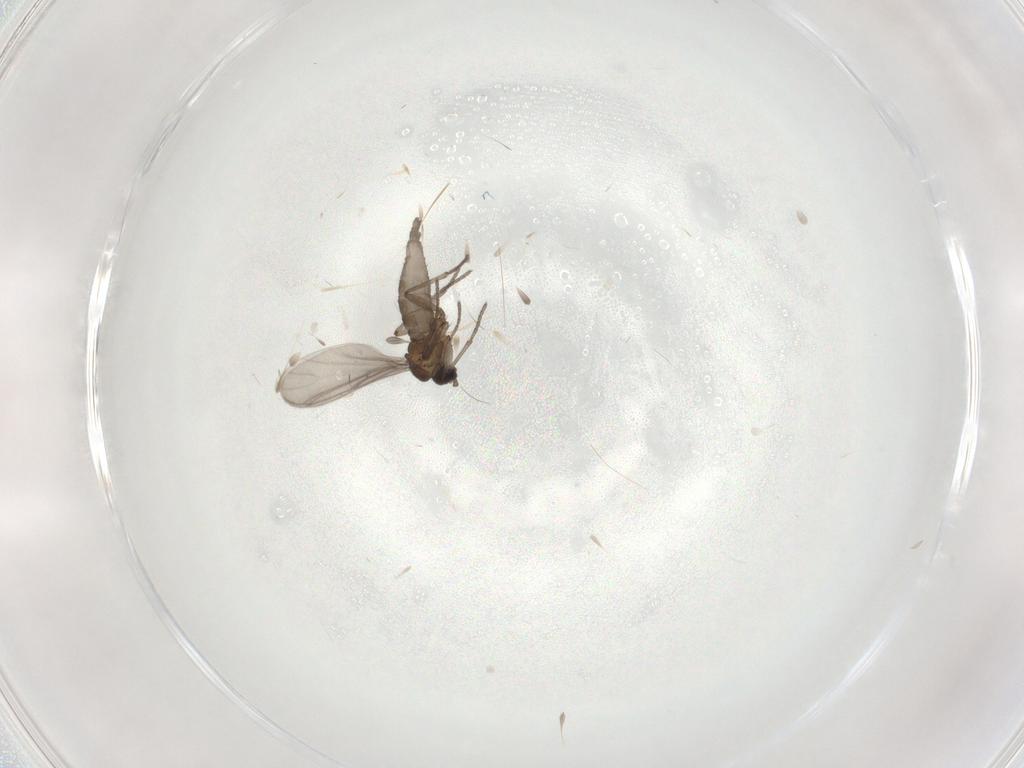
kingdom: Animalia
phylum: Arthropoda
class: Insecta
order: Diptera
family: Sciaridae
